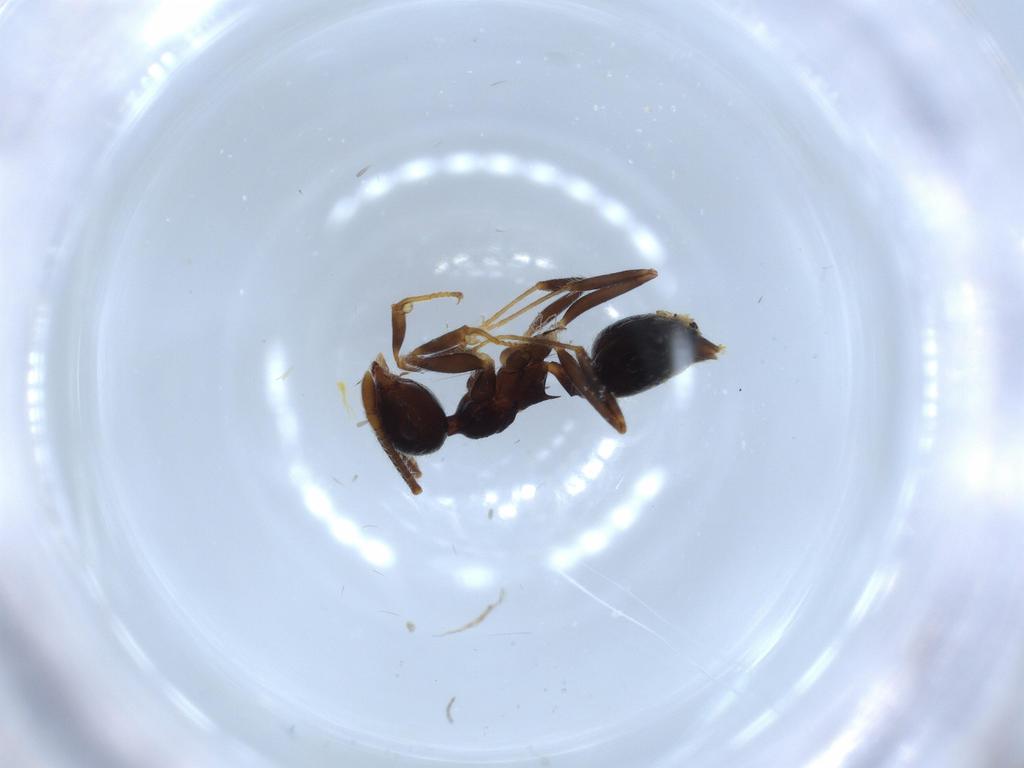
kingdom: Animalia
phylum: Arthropoda
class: Insecta
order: Hymenoptera
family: Formicidae
